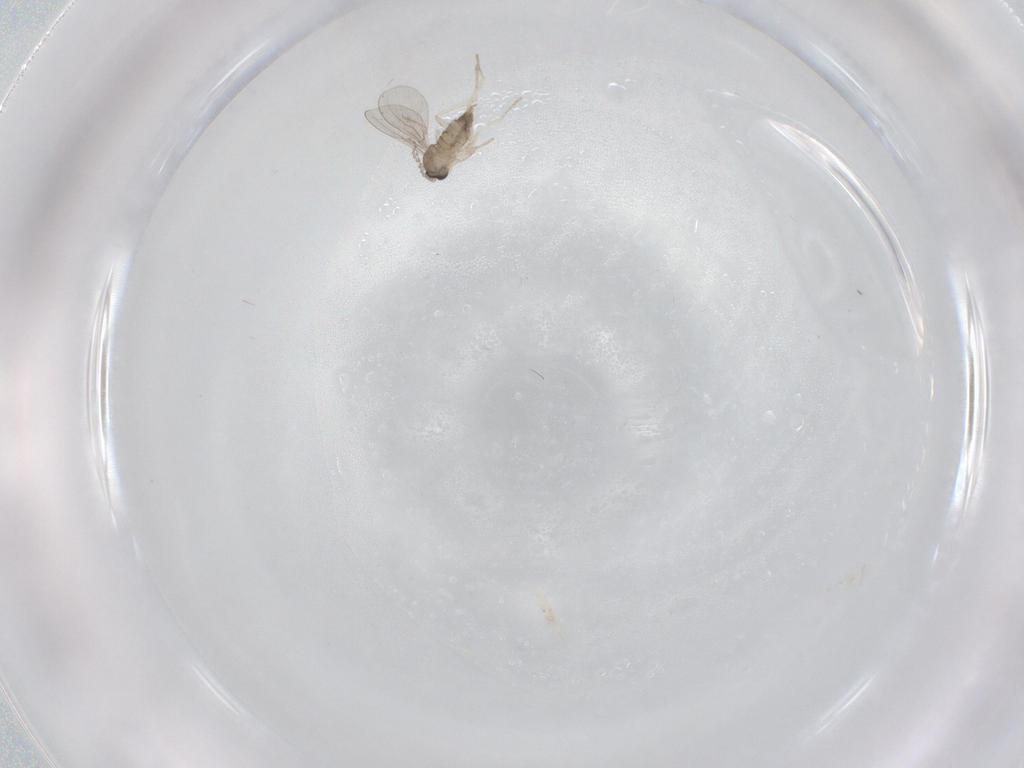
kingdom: Animalia
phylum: Arthropoda
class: Insecta
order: Diptera
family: Cecidomyiidae
